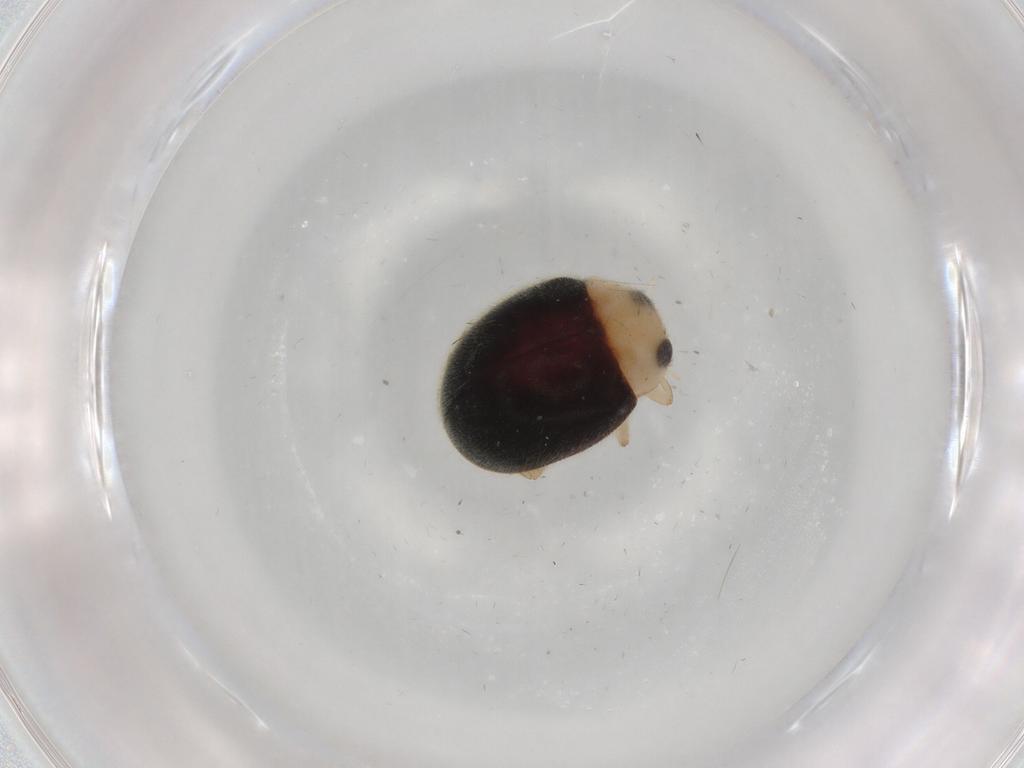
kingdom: Animalia
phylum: Arthropoda
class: Insecta
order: Coleoptera
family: Coccinellidae
